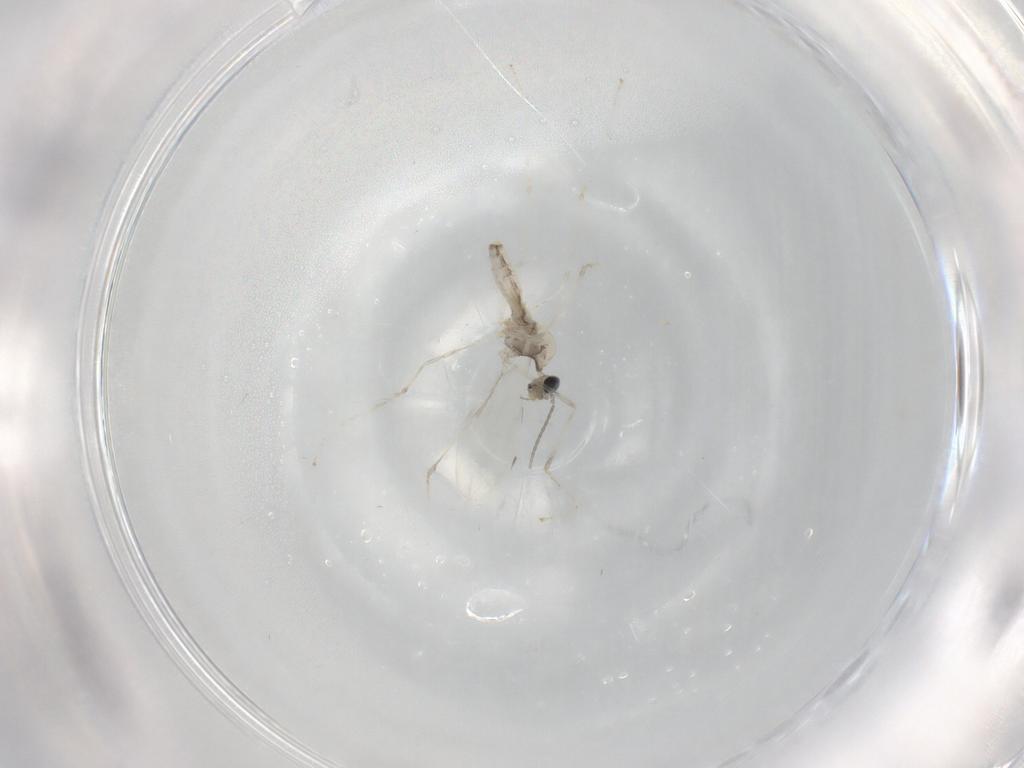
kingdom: Animalia
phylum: Arthropoda
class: Insecta
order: Diptera
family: Cecidomyiidae
